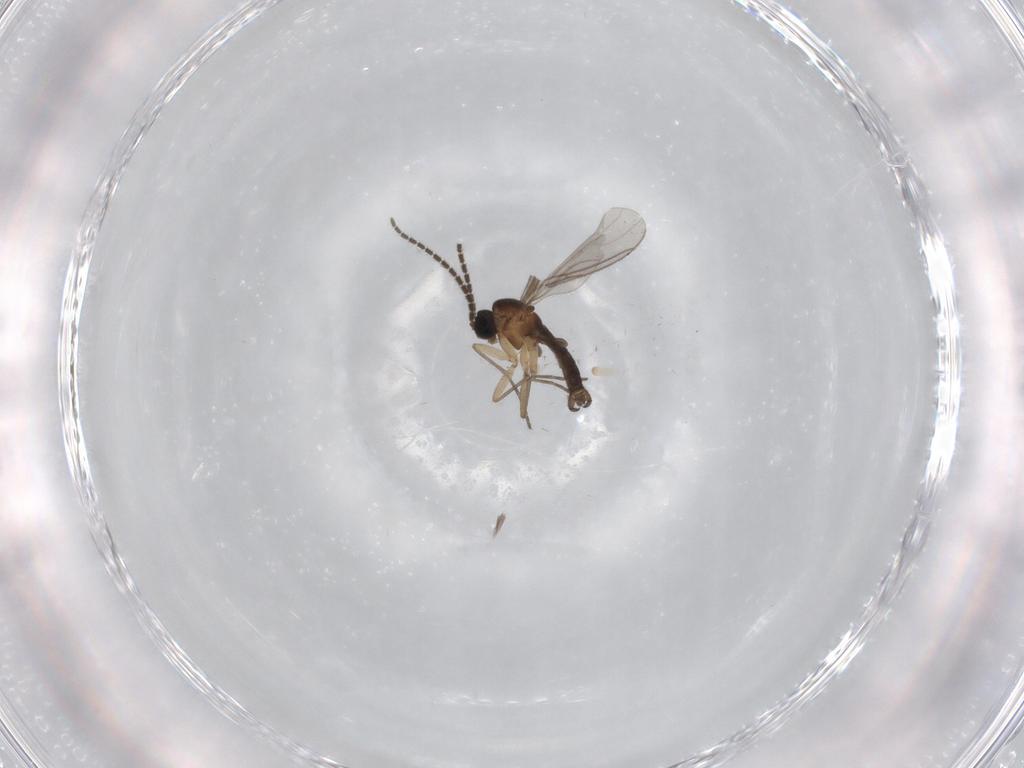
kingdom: Animalia
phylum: Arthropoda
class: Insecta
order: Diptera
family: Sciaridae
